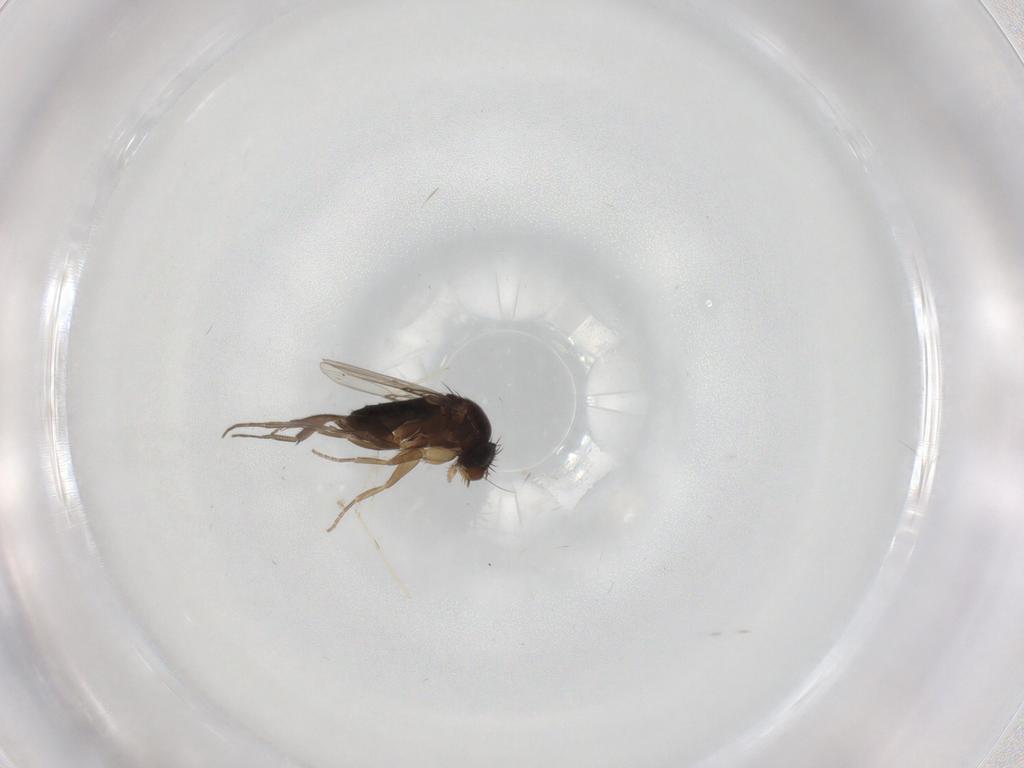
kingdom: Animalia
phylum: Arthropoda
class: Insecta
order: Diptera
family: Phoridae
